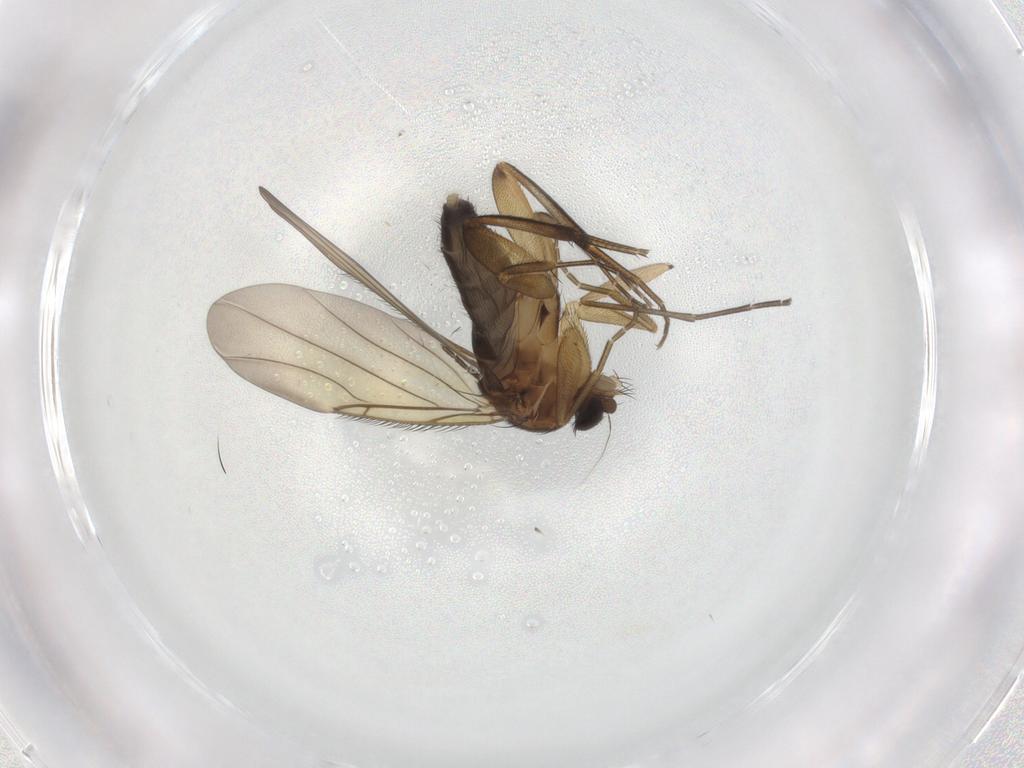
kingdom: Animalia
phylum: Arthropoda
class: Insecta
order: Diptera
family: Phoridae
